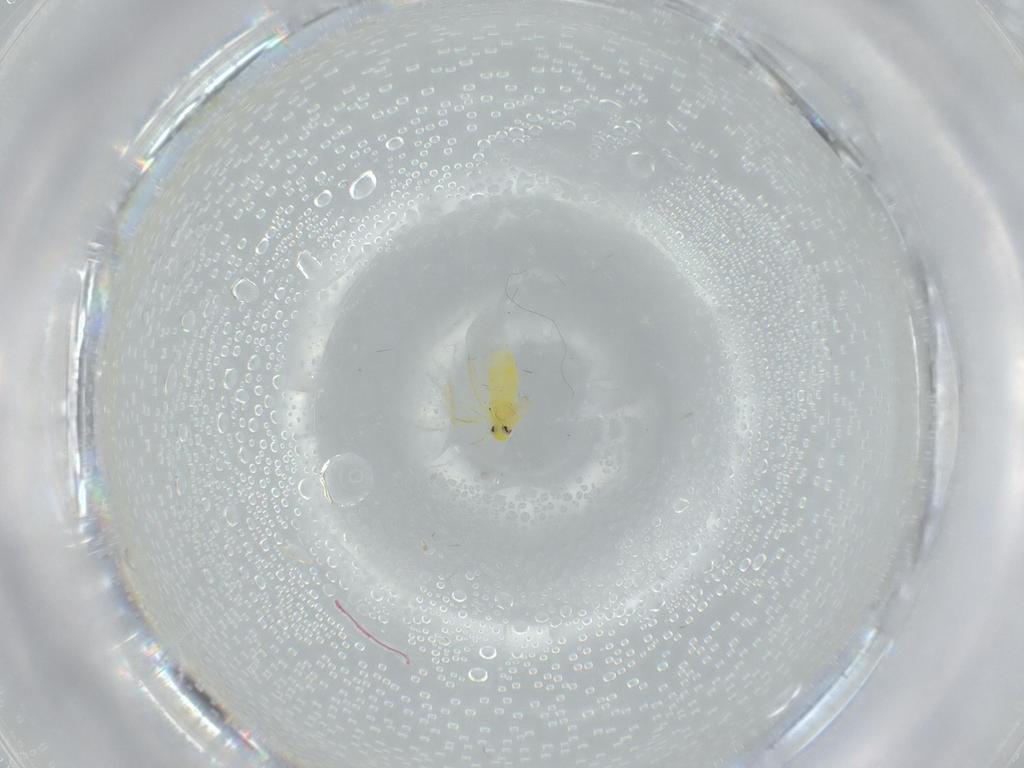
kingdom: Animalia
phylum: Arthropoda
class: Insecta
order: Hemiptera
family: Aleyrodidae
